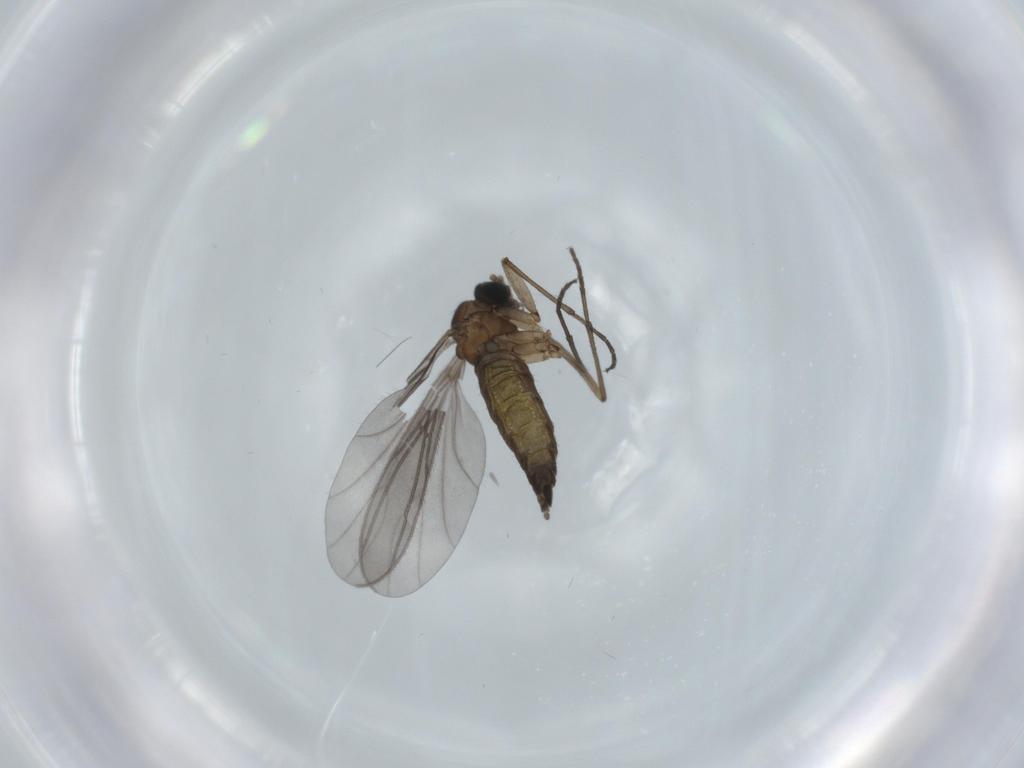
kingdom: Animalia
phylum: Arthropoda
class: Insecta
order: Diptera
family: Sciaridae
